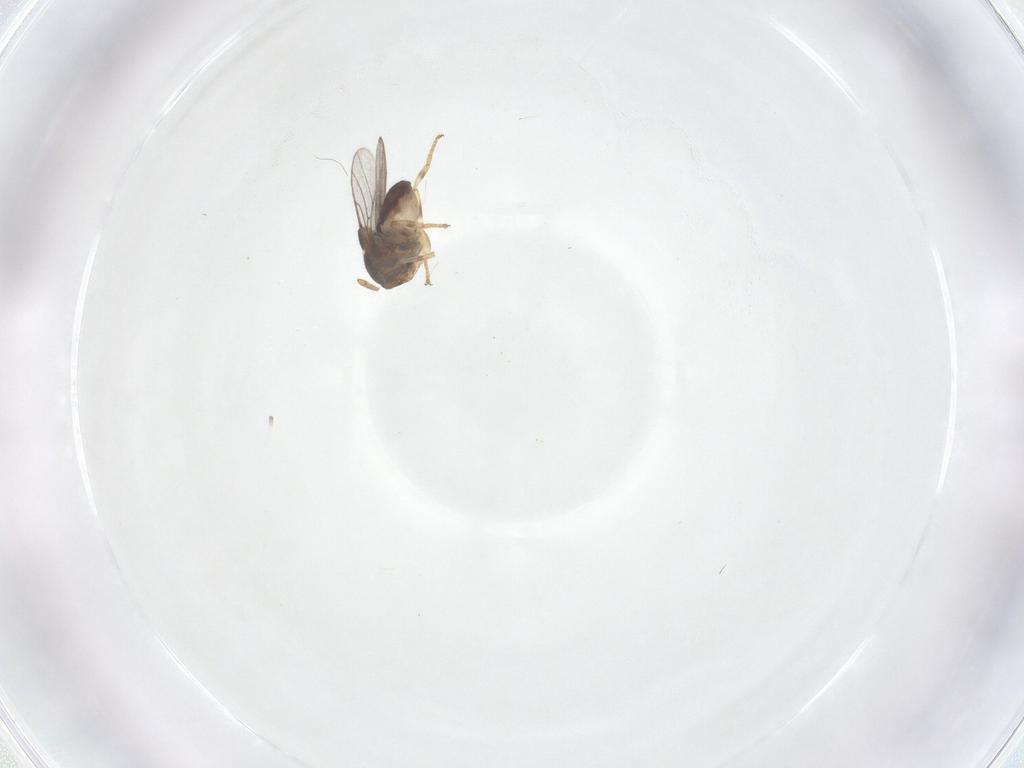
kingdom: Animalia
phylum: Arthropoda
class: Insecta
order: Diptera
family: Chloropidae
